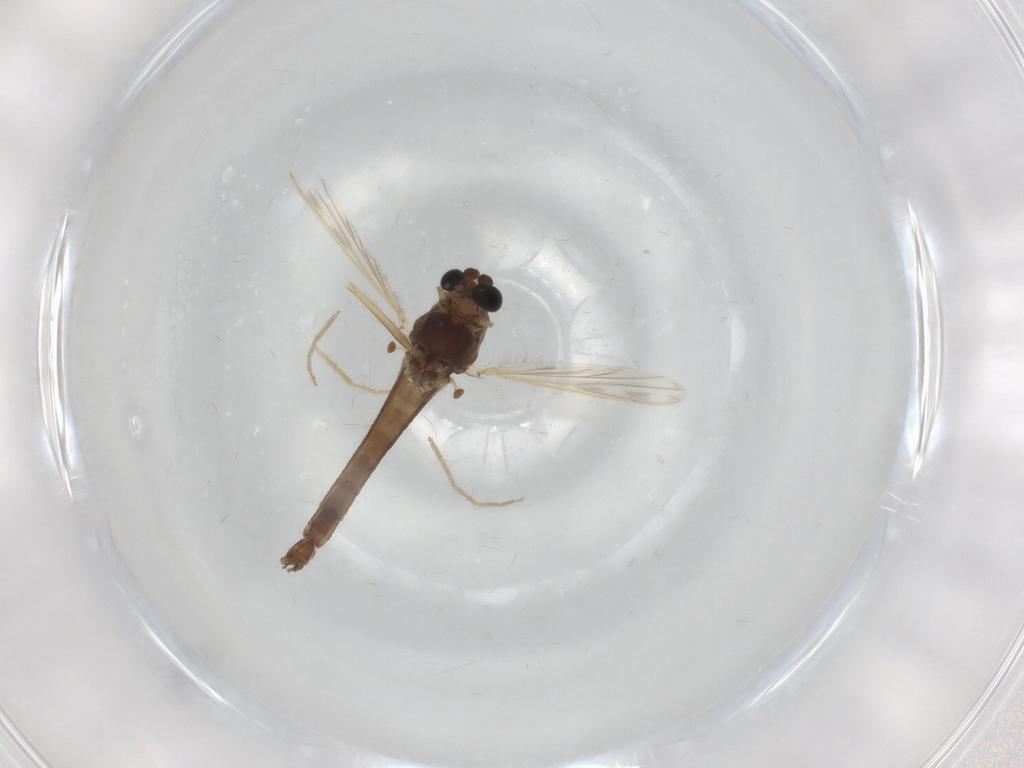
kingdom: Animalia
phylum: Arthropoda
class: Insecta
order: Diptera
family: Chironomidae
